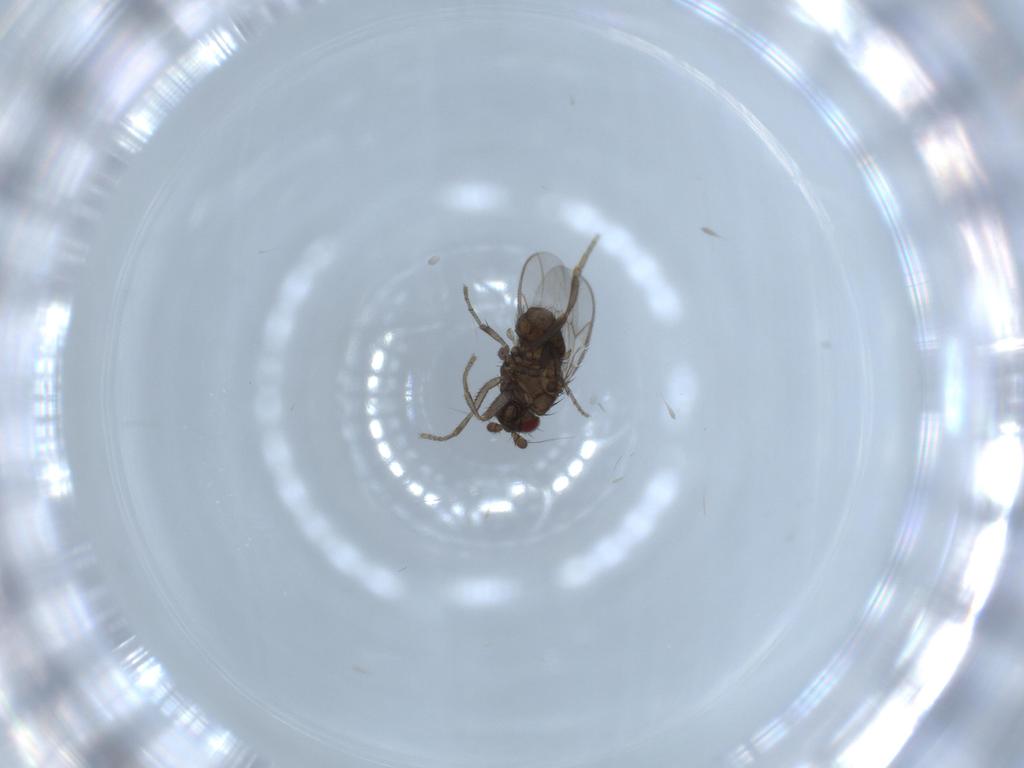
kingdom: Animalia
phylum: Arthropoda
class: Insecta
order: Diptera
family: Sphaeroceridae
